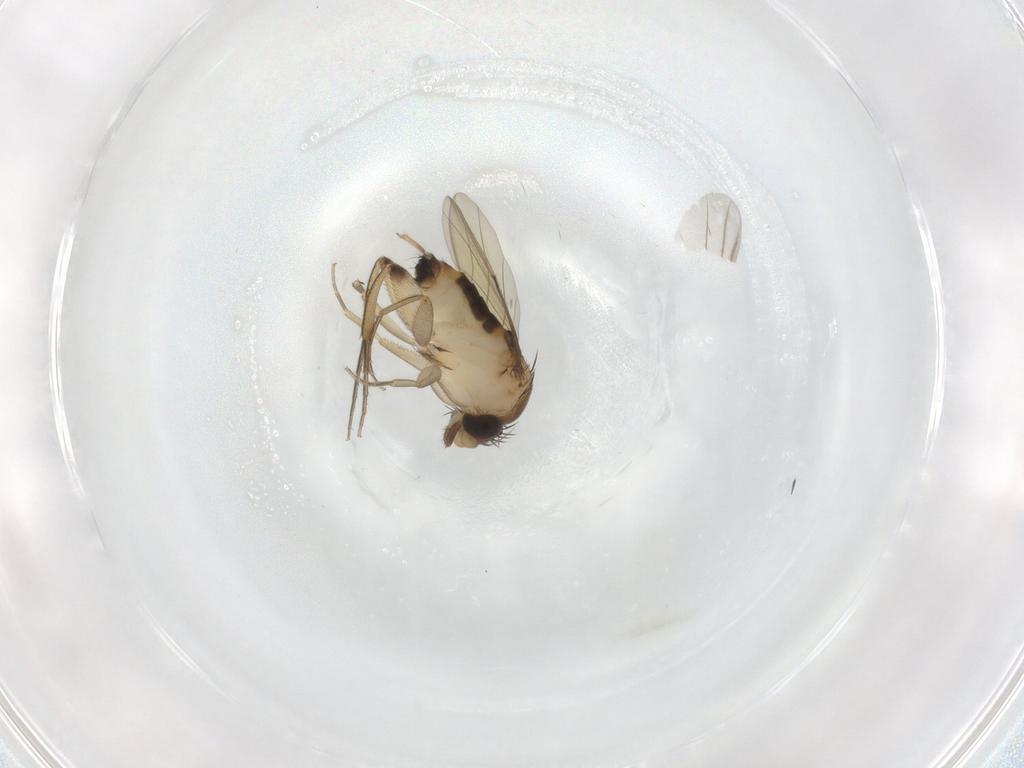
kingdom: Animalia
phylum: Arthropoda
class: Insecta
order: Diptera
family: Phoridae
